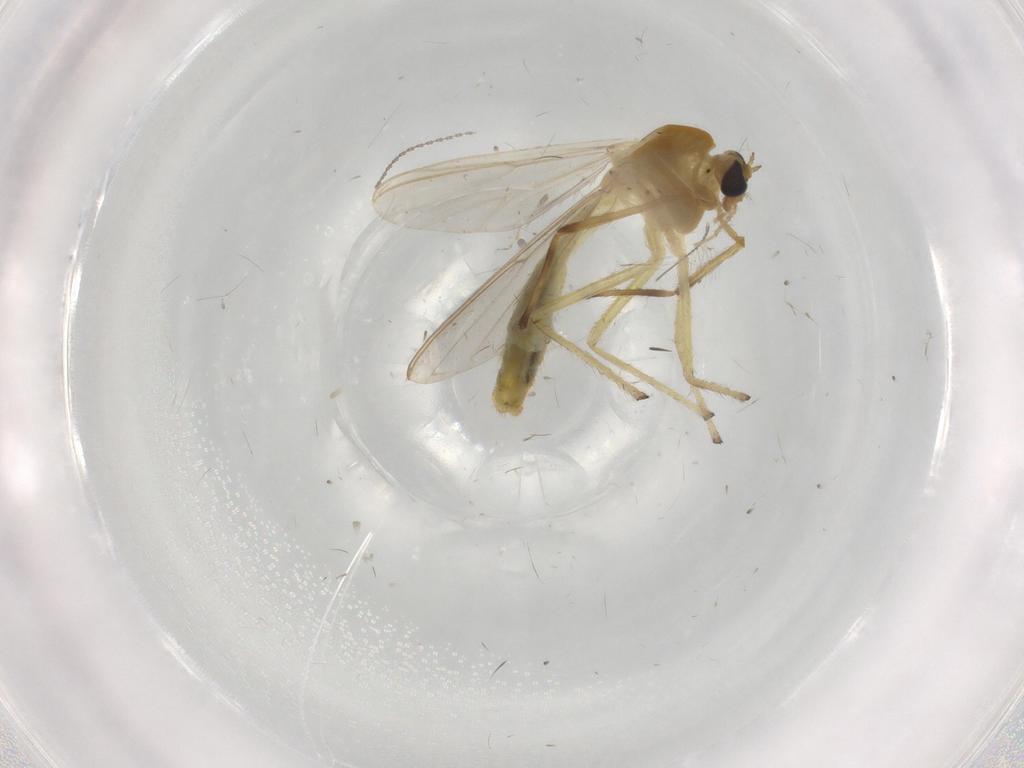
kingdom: Animalia
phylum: Arthropoda
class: Insecta
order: Diptera
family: Chironomidae
